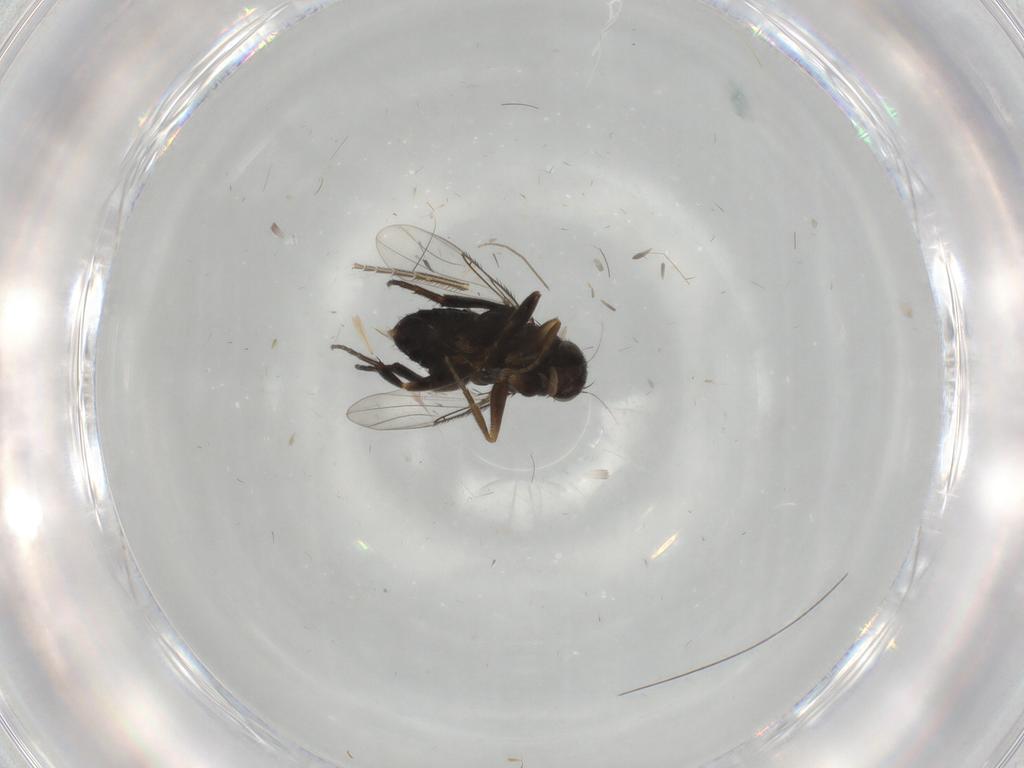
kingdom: Animalia
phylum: Arthropoda
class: Insecta
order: Diptera
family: Phoridae
